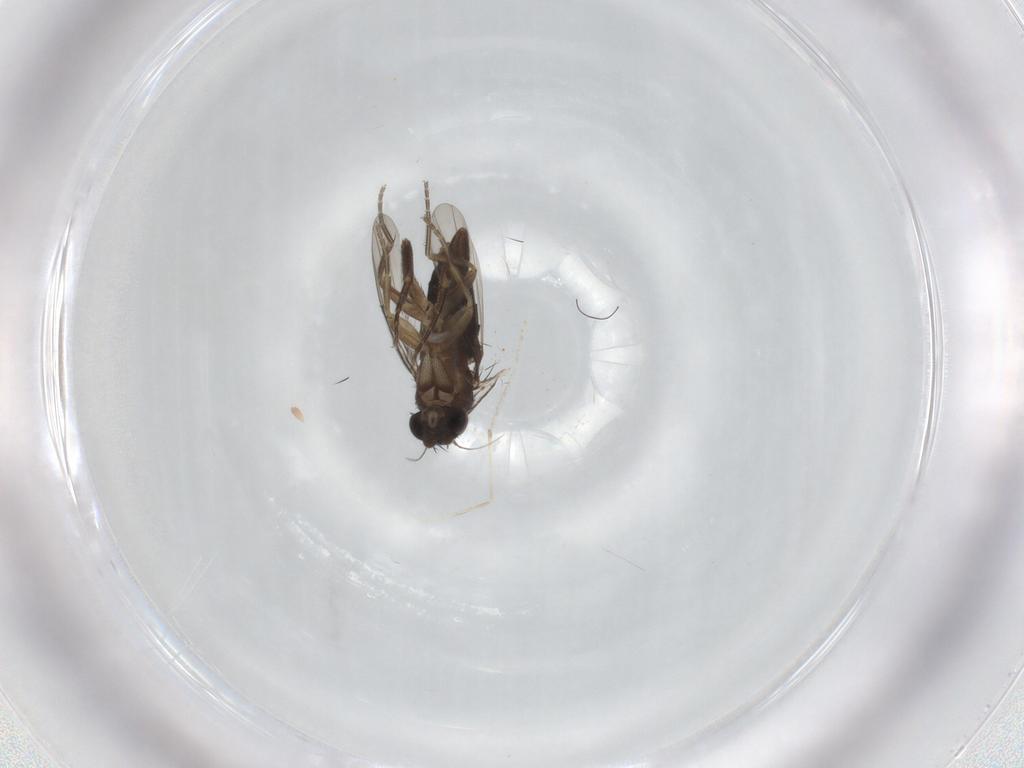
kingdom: Animalia
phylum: Arthropoda
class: Insecta
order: Diptera
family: Phoridae
